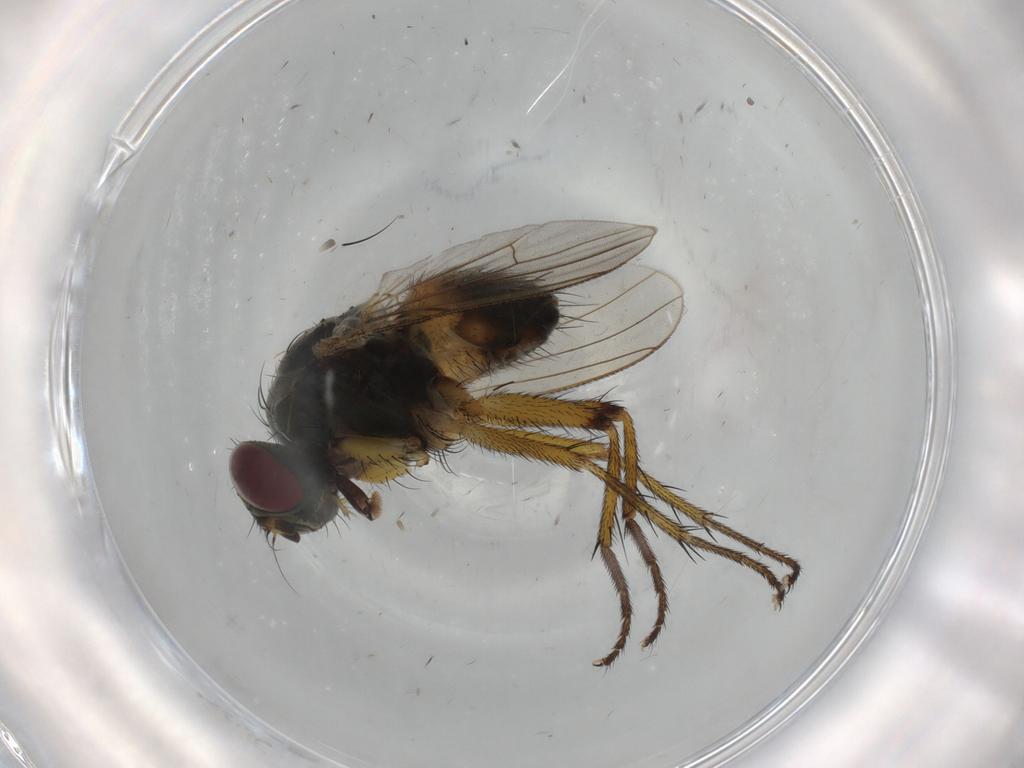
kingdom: Animalia
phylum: Arthropoda
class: Insecta
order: Diptera
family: Muscidae
